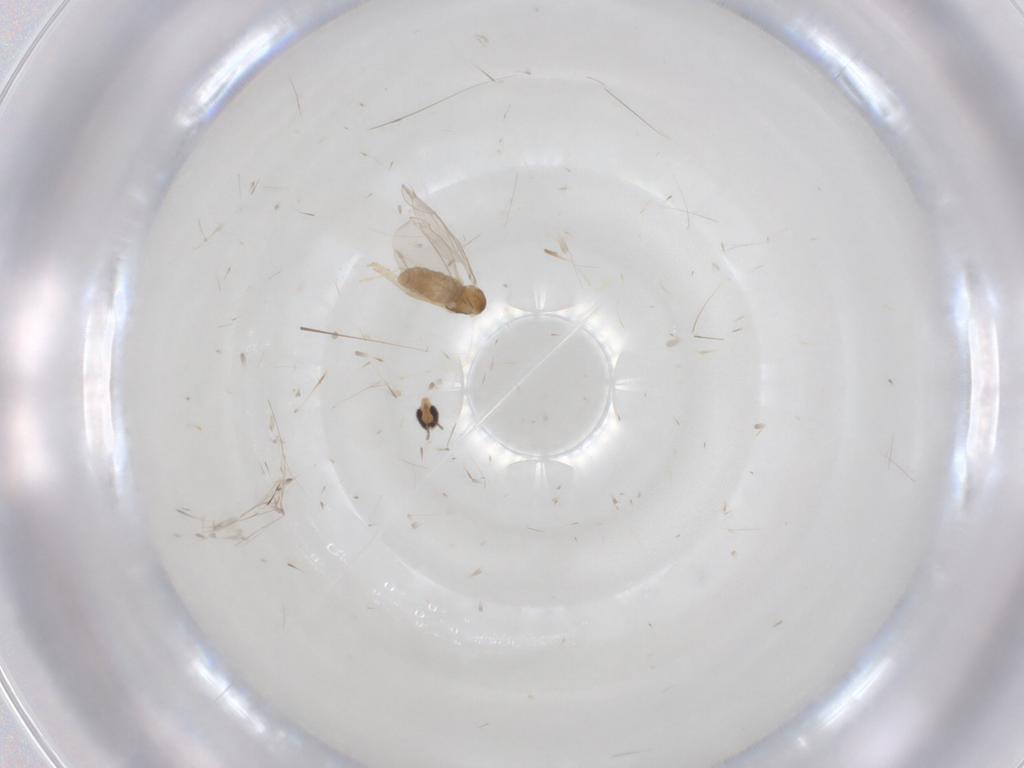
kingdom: Animalia
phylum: Arthropoda
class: Insecta
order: Diptera
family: Cecidomyiidae
